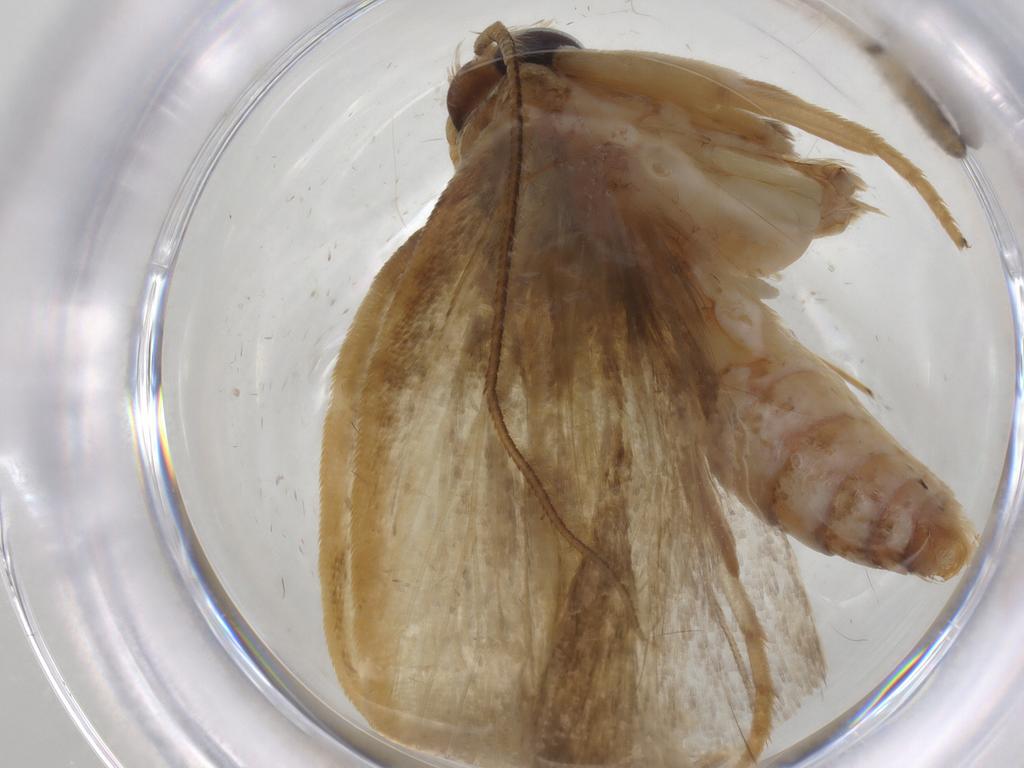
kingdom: Animalia
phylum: Arthropoda
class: Insecta
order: Lepidoptera
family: Depressariidae
